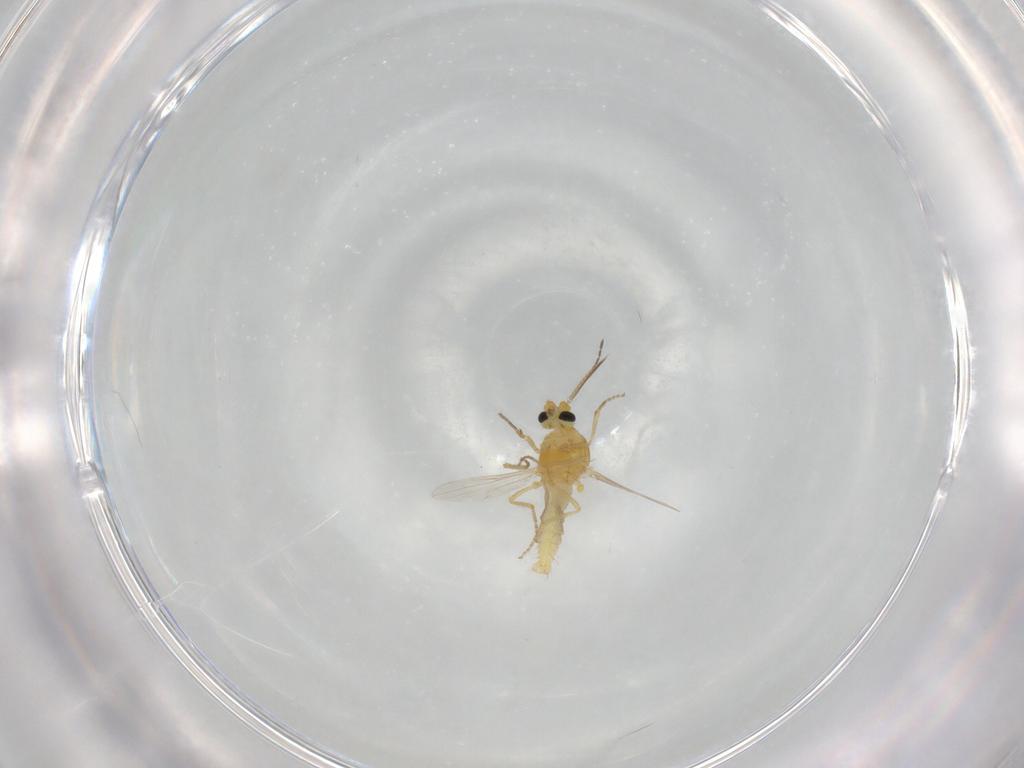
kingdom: Animalia
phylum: Arthropoda
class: Insecta
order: Diptera
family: Ceratopogonidae
